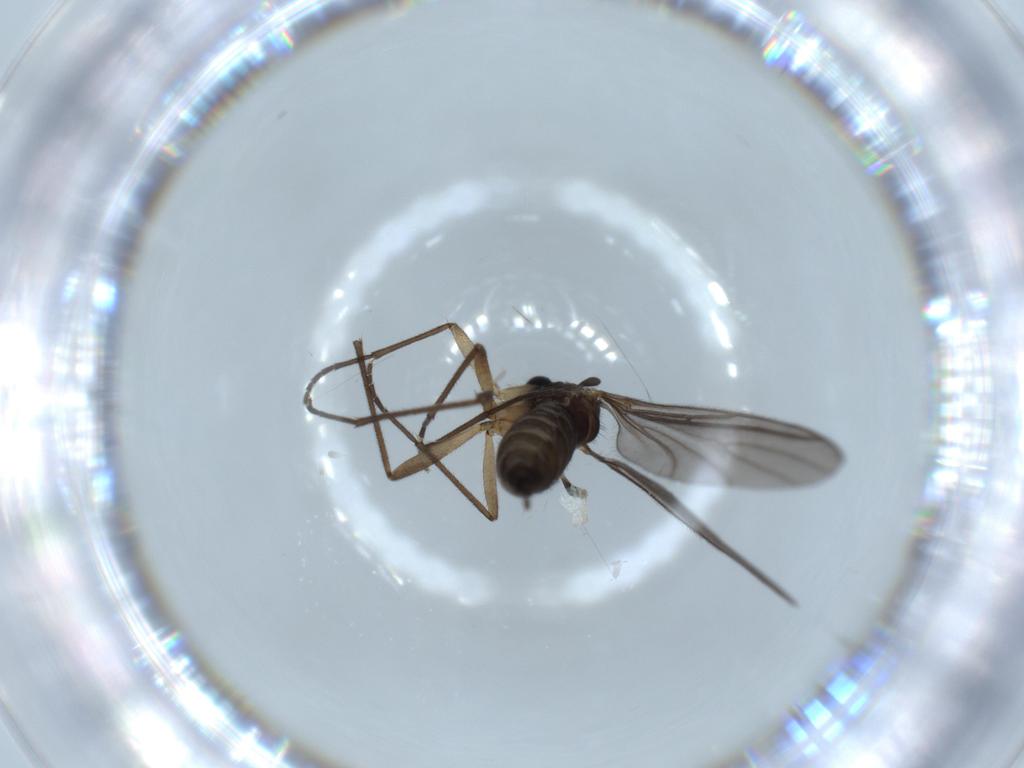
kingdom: Animalia
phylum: Arthropoda
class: Insecta
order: Diptera
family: Sciaridae
